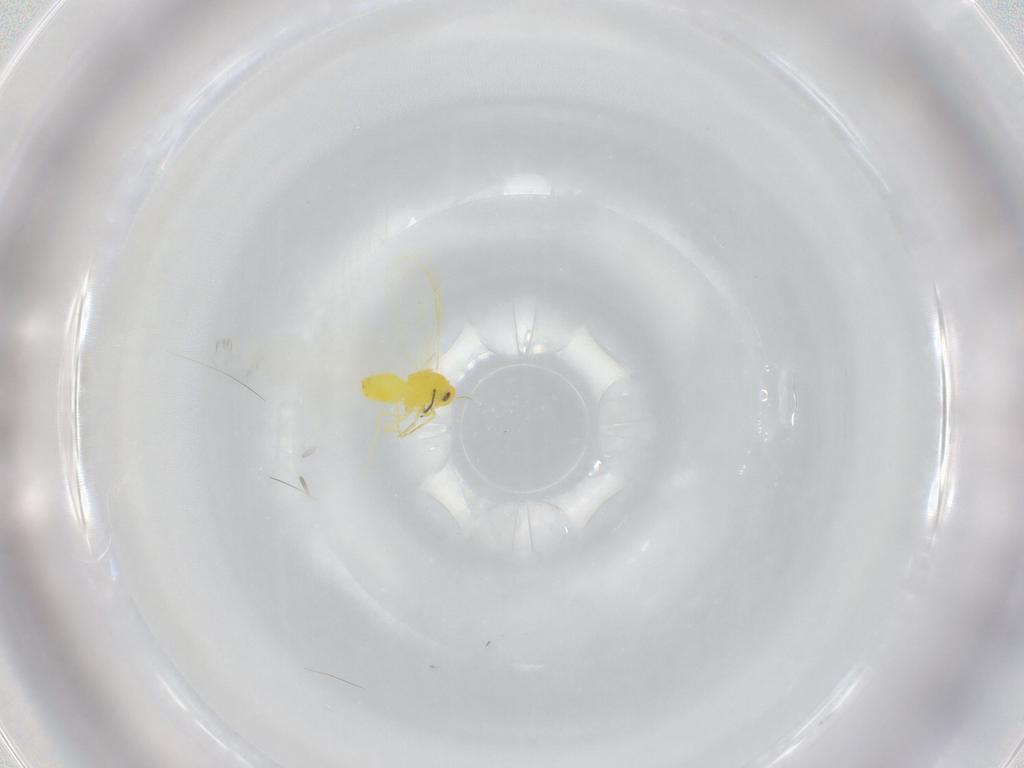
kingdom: Animalia
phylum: Arthropoda
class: Insecta
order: Hemiptera
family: Aleyrodidae
